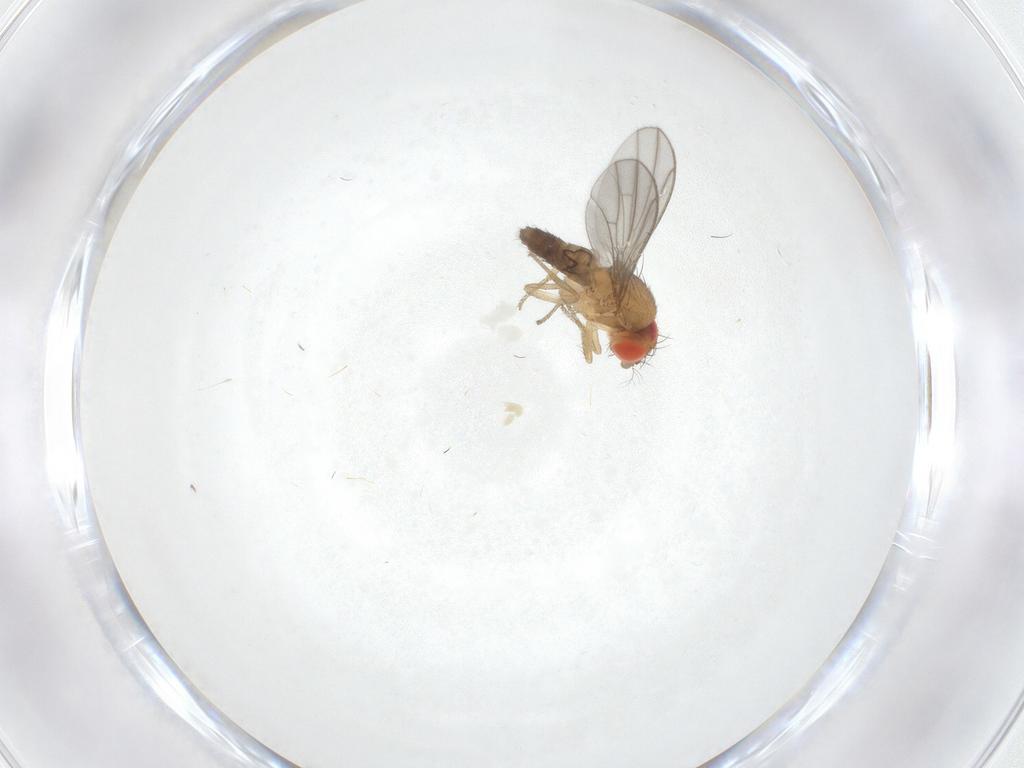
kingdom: Animalia
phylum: Arthropoda
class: Insecta
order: Diptera
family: Drosophilidae
